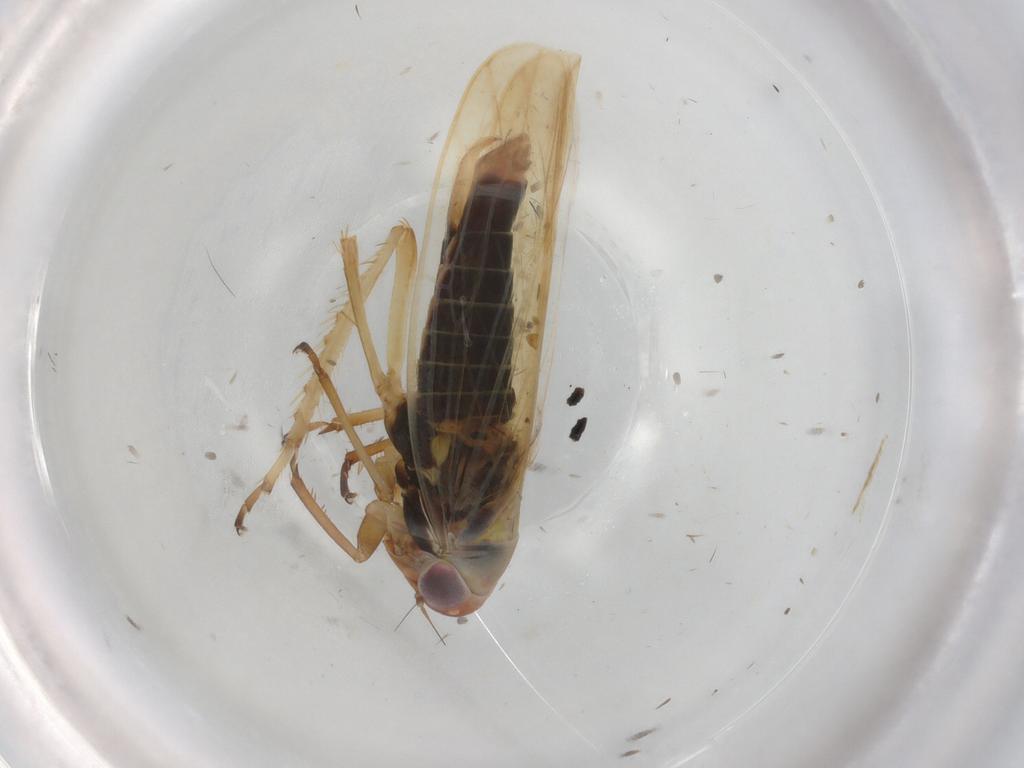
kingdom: Animalia
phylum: Arthropoda
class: Insecta
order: Hemiptera
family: Cicadellidae
